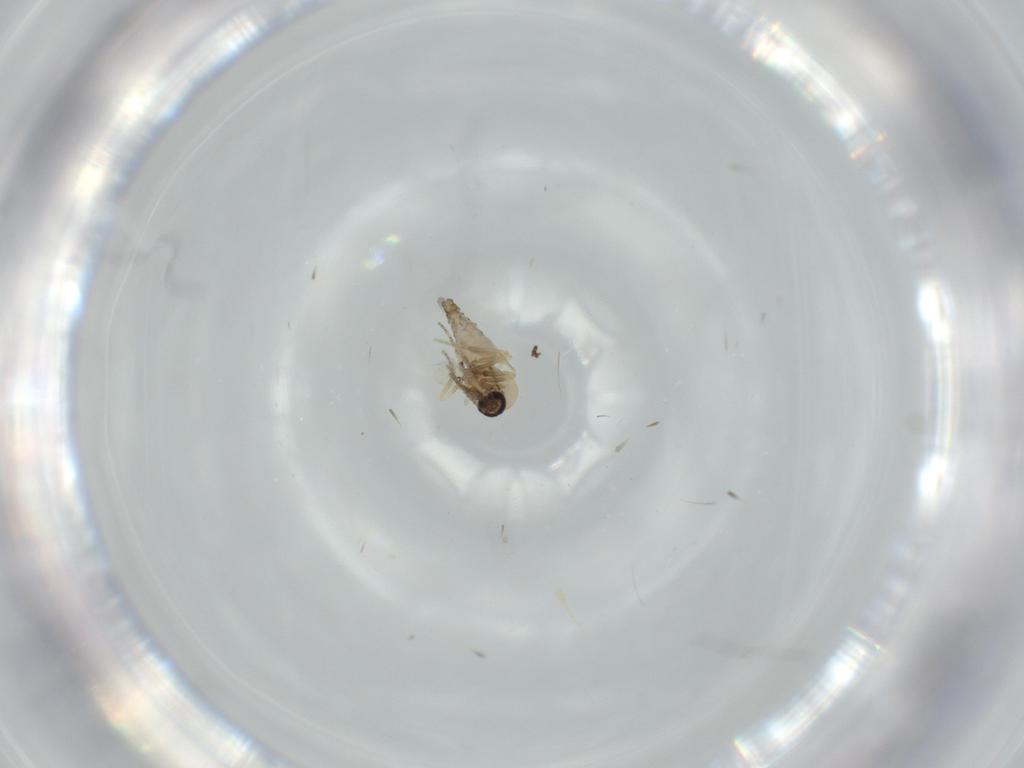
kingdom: Animalia
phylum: Arthropoda
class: Insecta
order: Diptera
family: Ceratopogonidae
